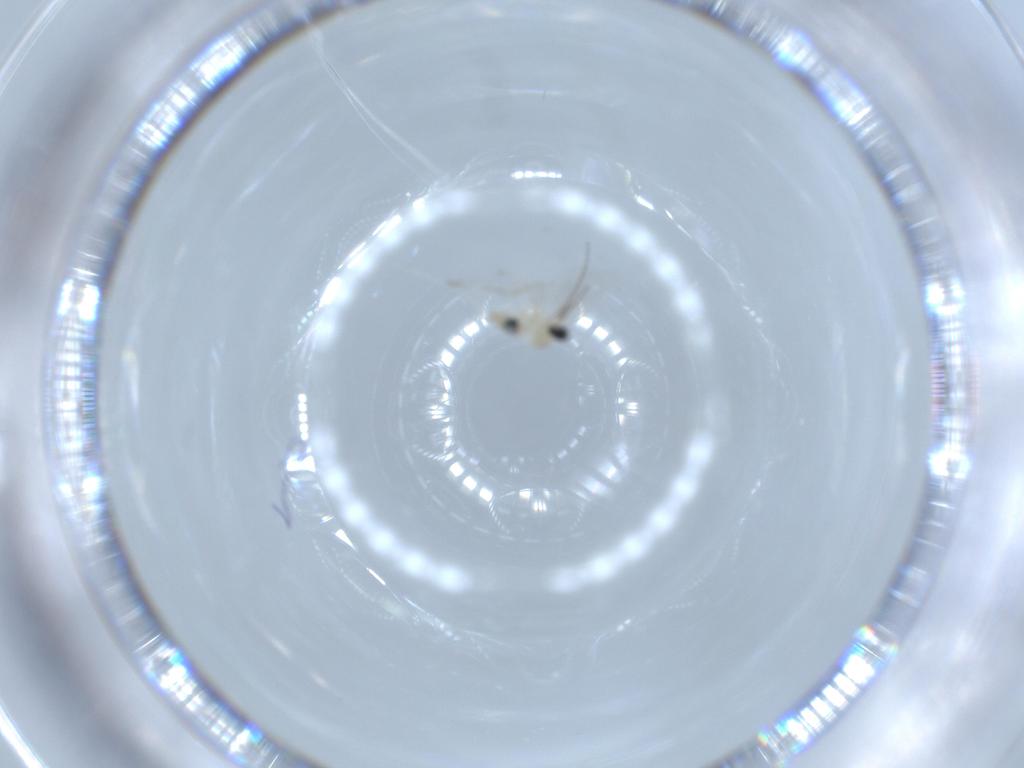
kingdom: Animalia
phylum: Arthropoda
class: Insecta
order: Diptera
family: Cecidomyiidae
